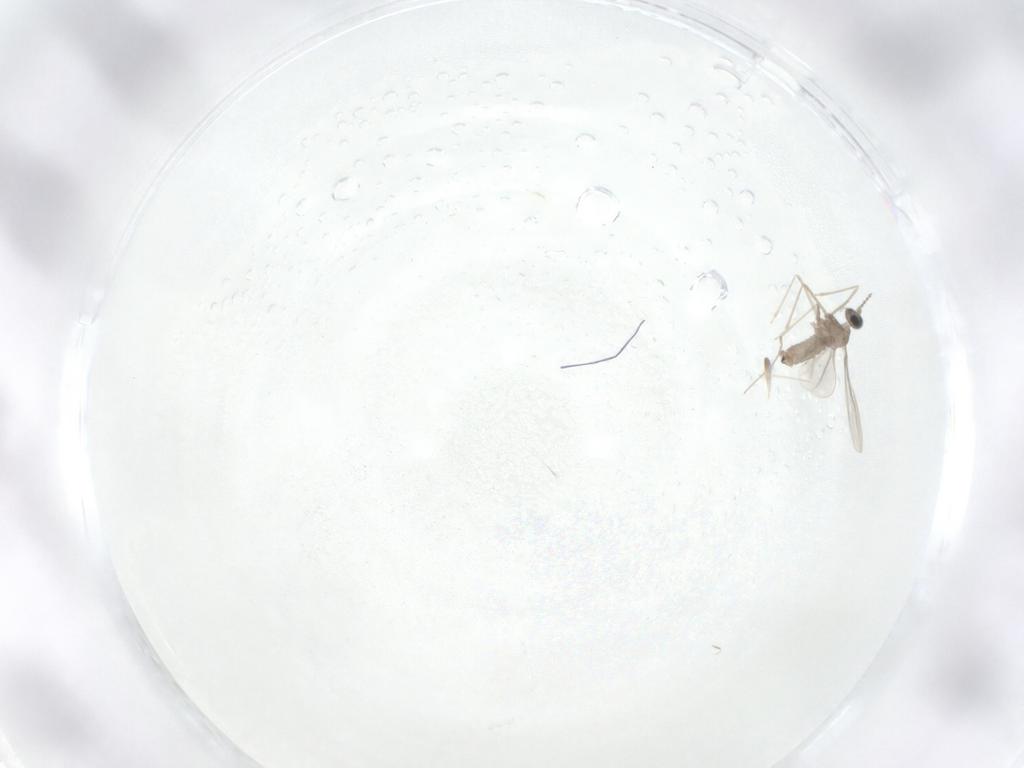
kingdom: Animalia
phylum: Arthropoda
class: Insecta
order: Diptera
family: Cecidomyiidae
